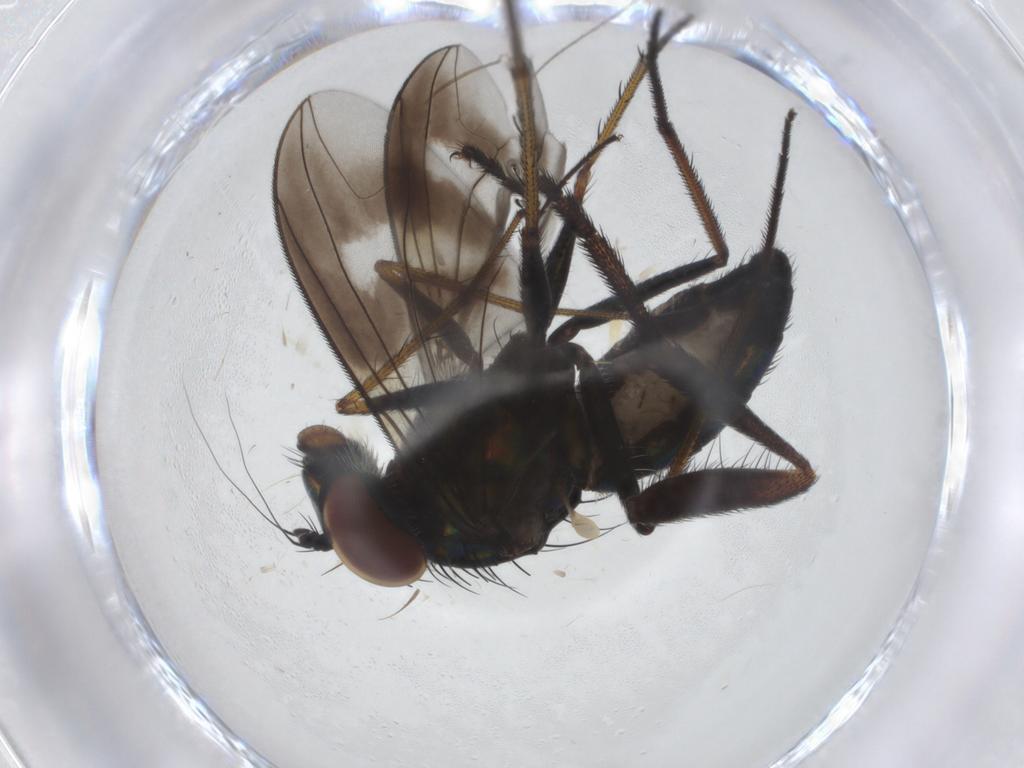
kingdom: Animalia
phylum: Arthropoda
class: Insecta
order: Diptera
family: Dolichopodidae
